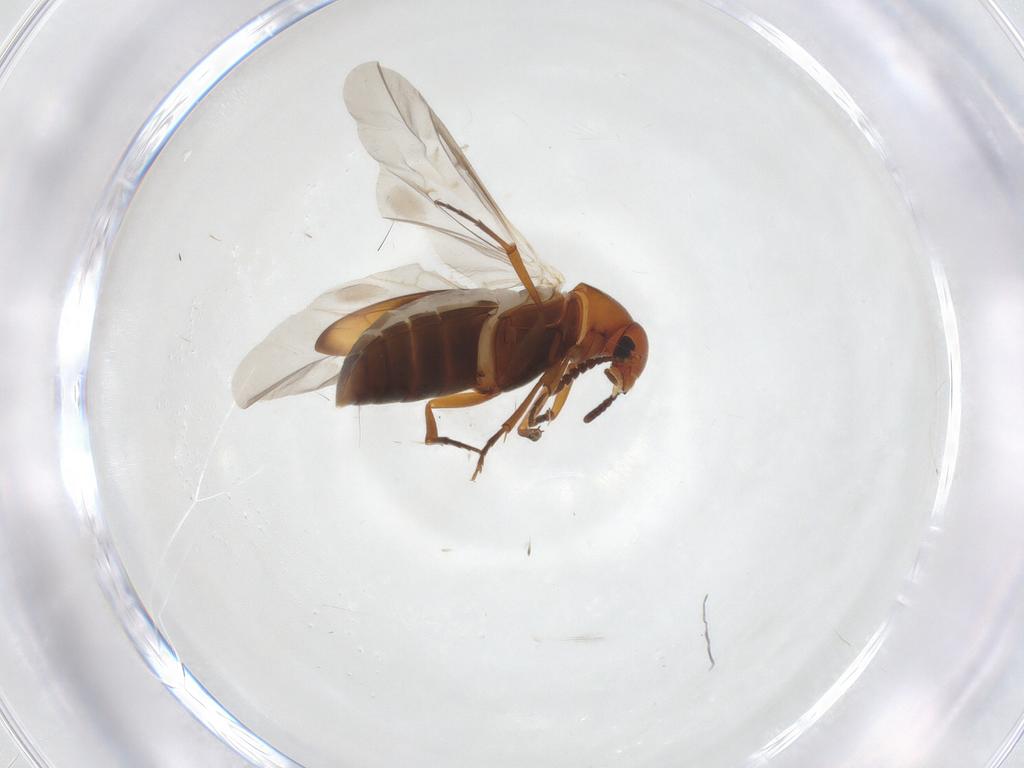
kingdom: Animalia
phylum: Arthropoda
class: Insecta
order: Coleoptera
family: Scraptiidae
